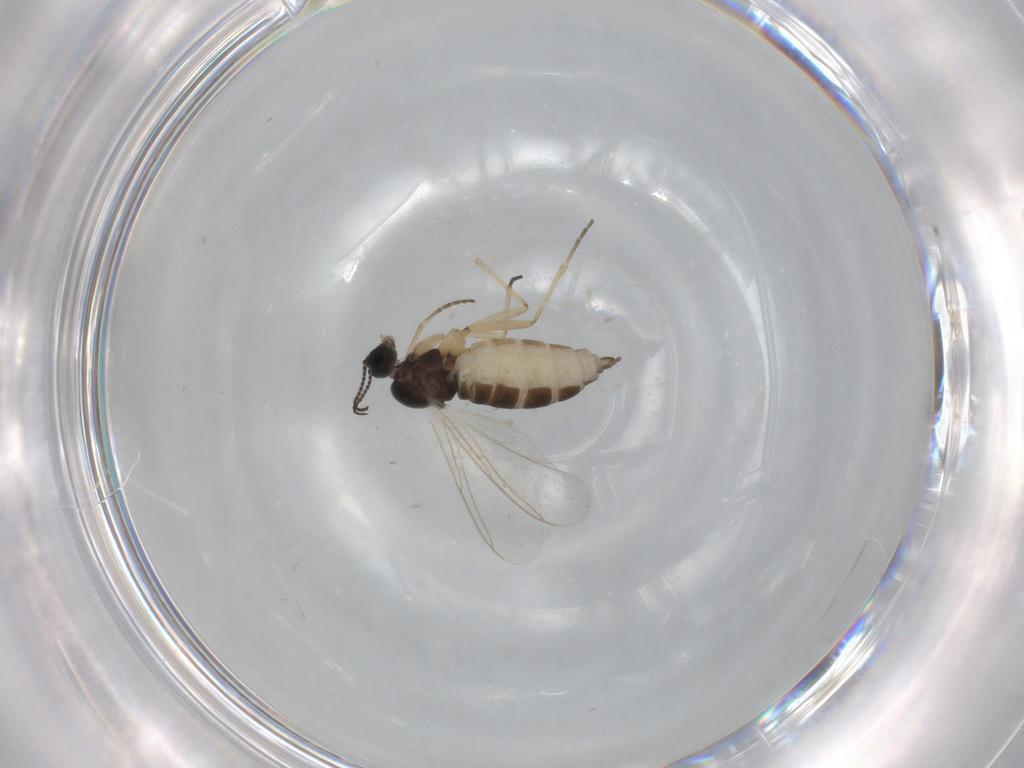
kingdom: Animalia
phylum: Arthropoda
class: Insecta
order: Diptera
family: Sciaridae
